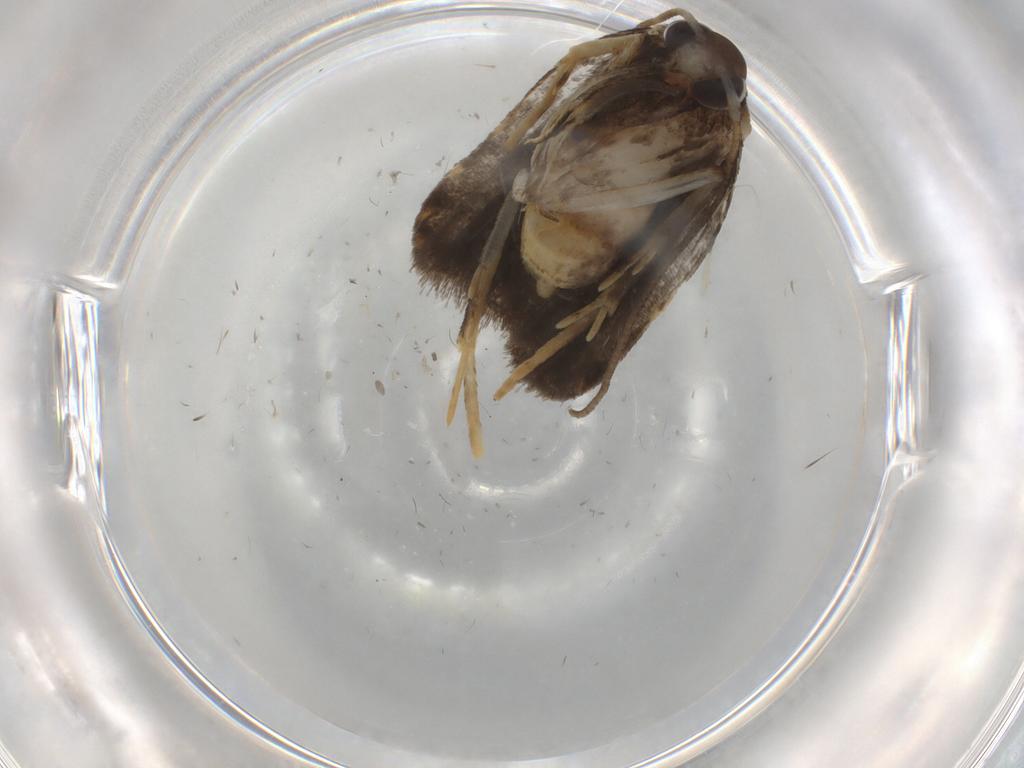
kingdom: Animalia
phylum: Arthropoda
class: Insecta
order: Lepidoptera
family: Cosmopterigidae
